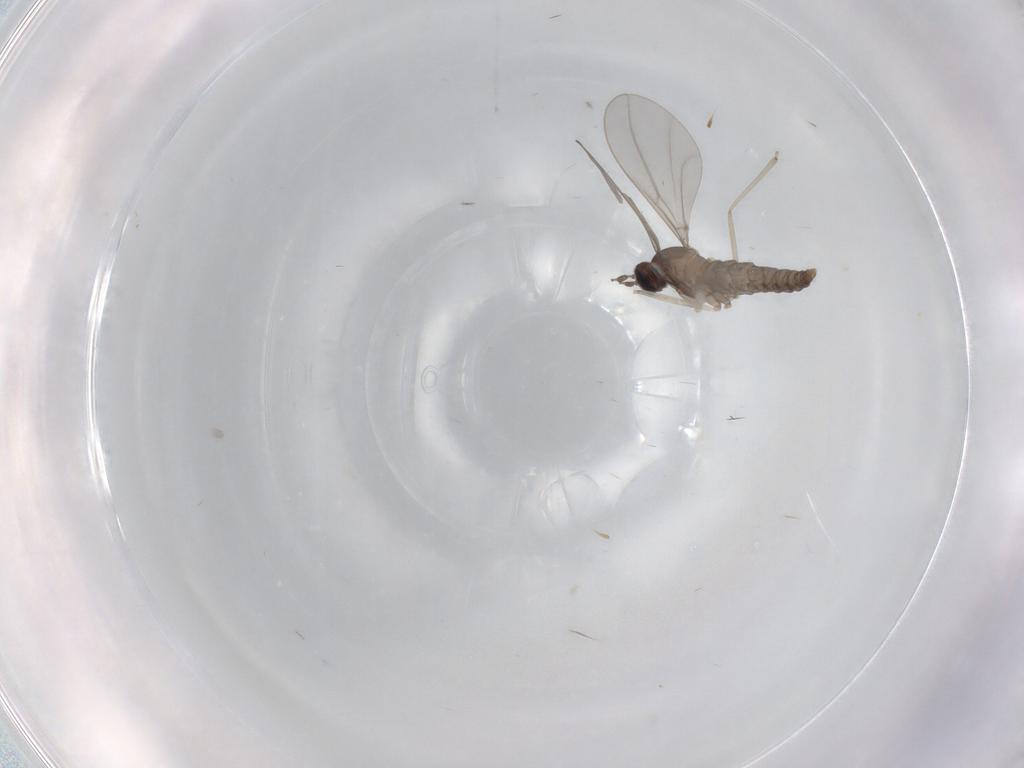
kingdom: Animalia
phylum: Arthropoda
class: Insecta
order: Diptera
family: Cecidomyiidae
